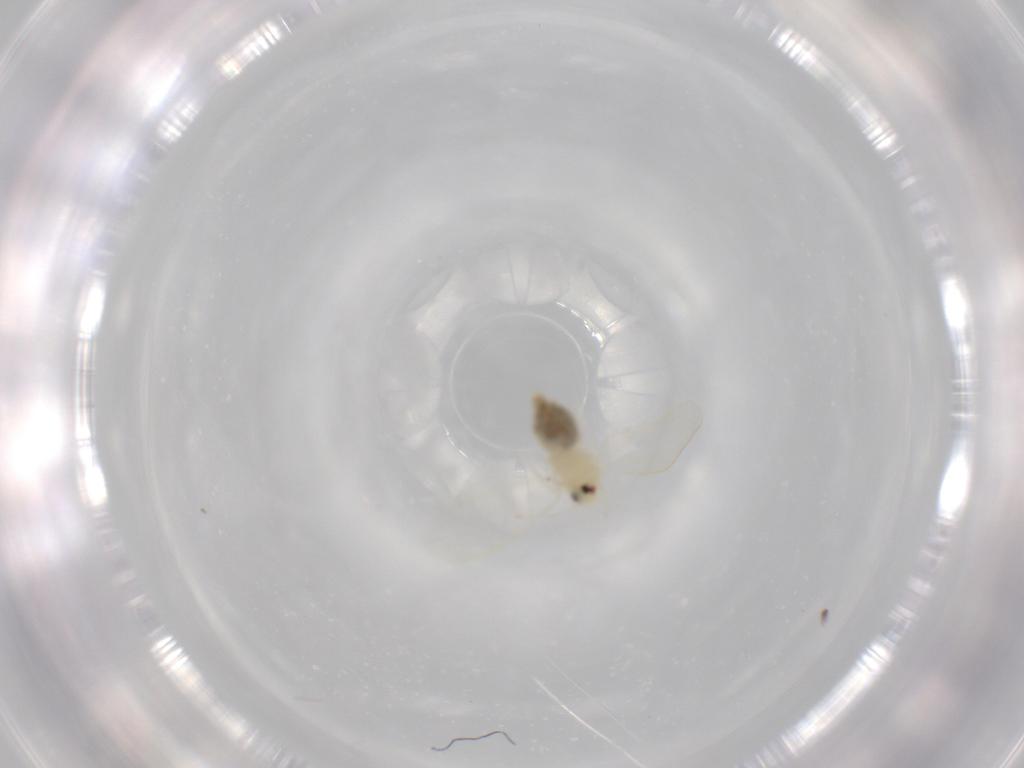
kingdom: Animalia
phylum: Arthropoda
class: Insecta
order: Hemiptera
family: Aleyrodidae
